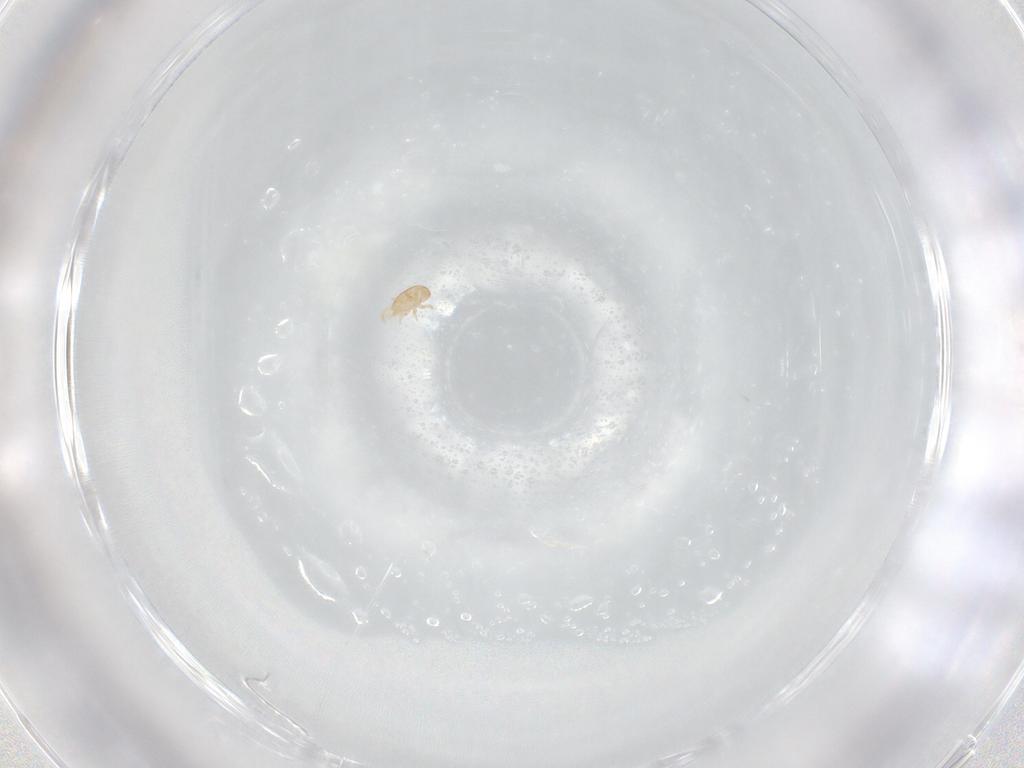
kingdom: Animalia
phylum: Arthropoda
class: Arachnida
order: Mesostigmata
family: Ascidae
